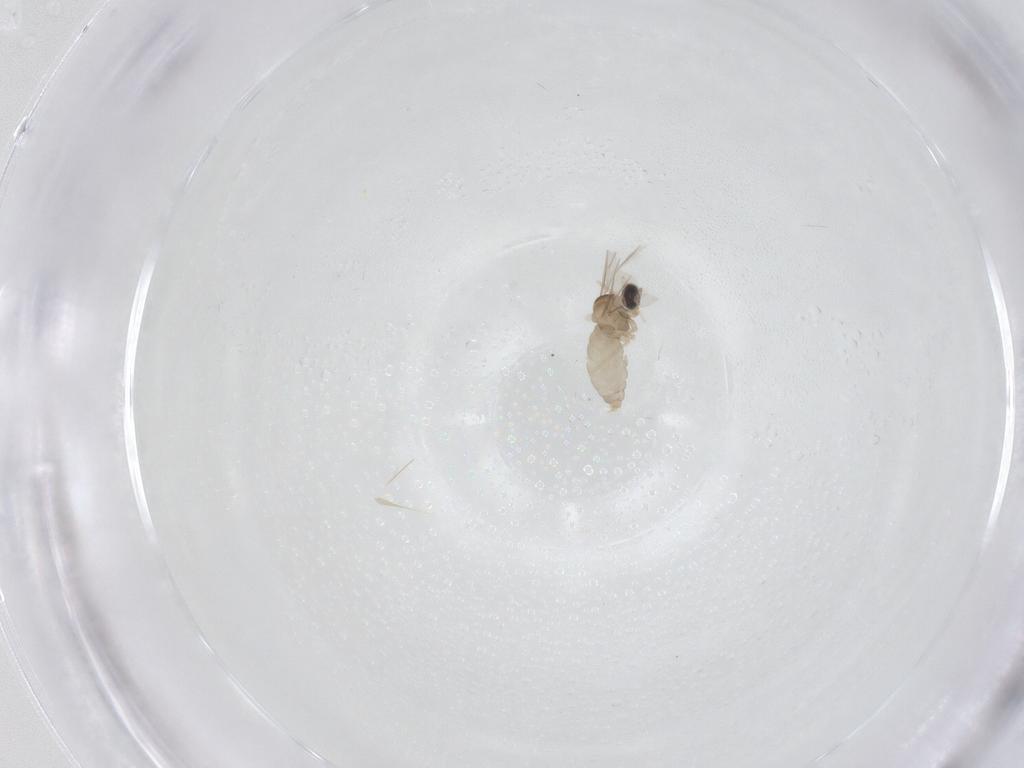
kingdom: Animalia
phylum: Arthropoda
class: Insecta
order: Diptera
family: Cecidomyiidae
